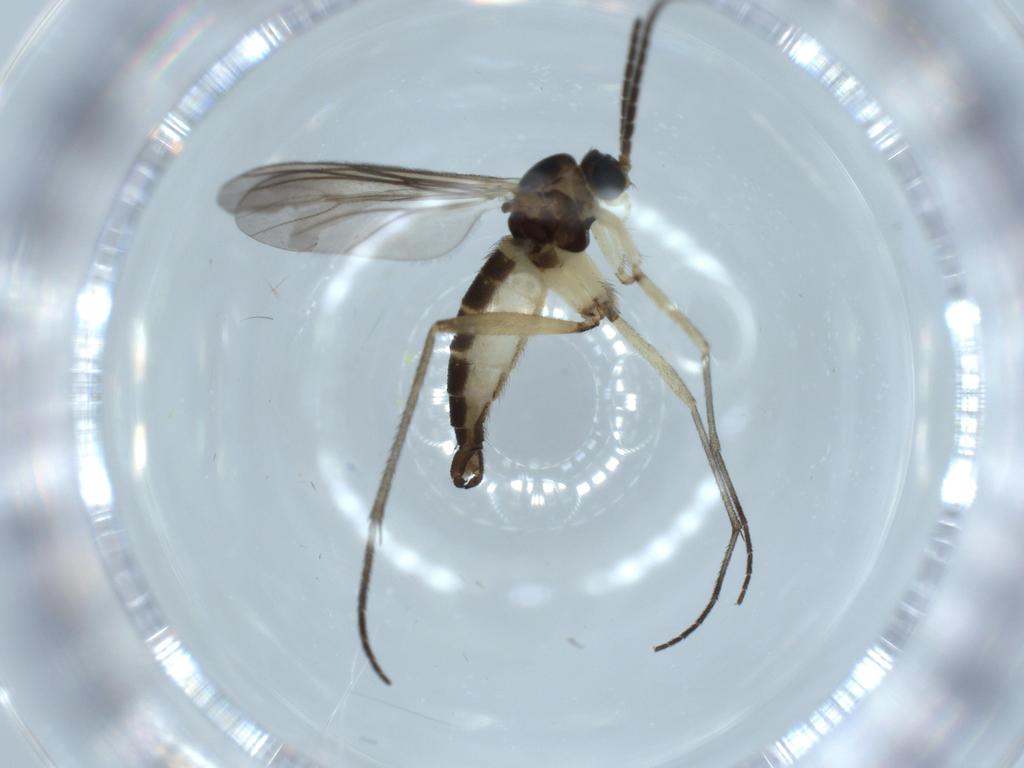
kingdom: Animalia
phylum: Arthropoda
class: Insecta
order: Diptera
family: Sciaridae
